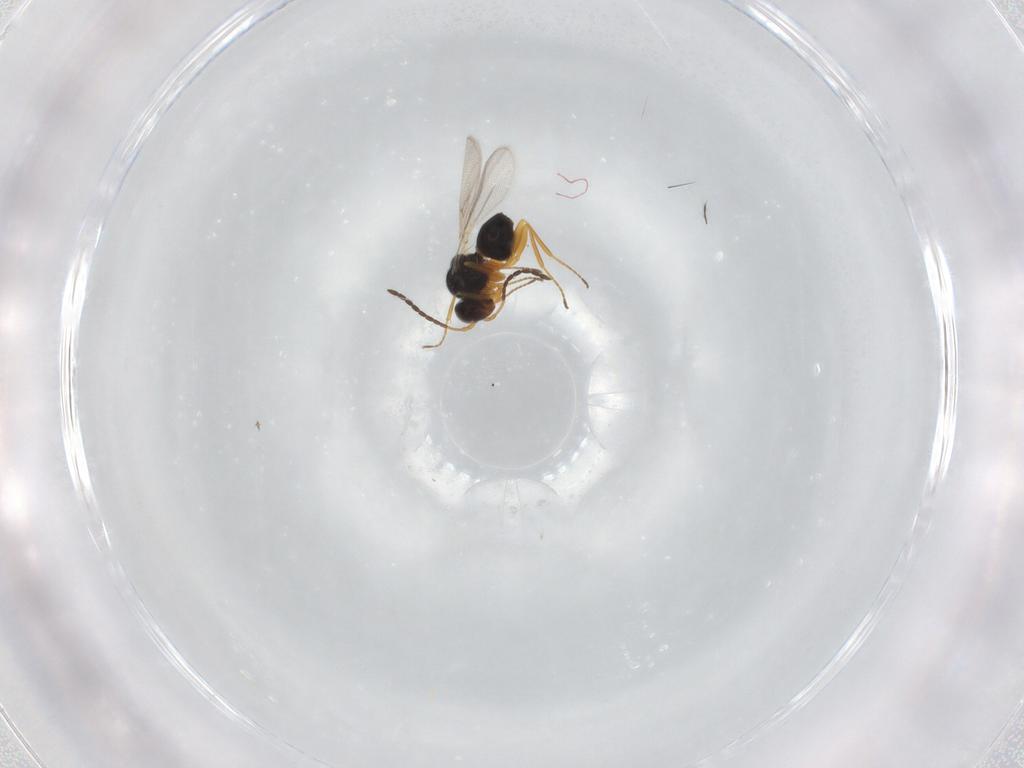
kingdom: Animalia
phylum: Arthropoda
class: Insecta
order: Hymenoptera
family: Figitidae
